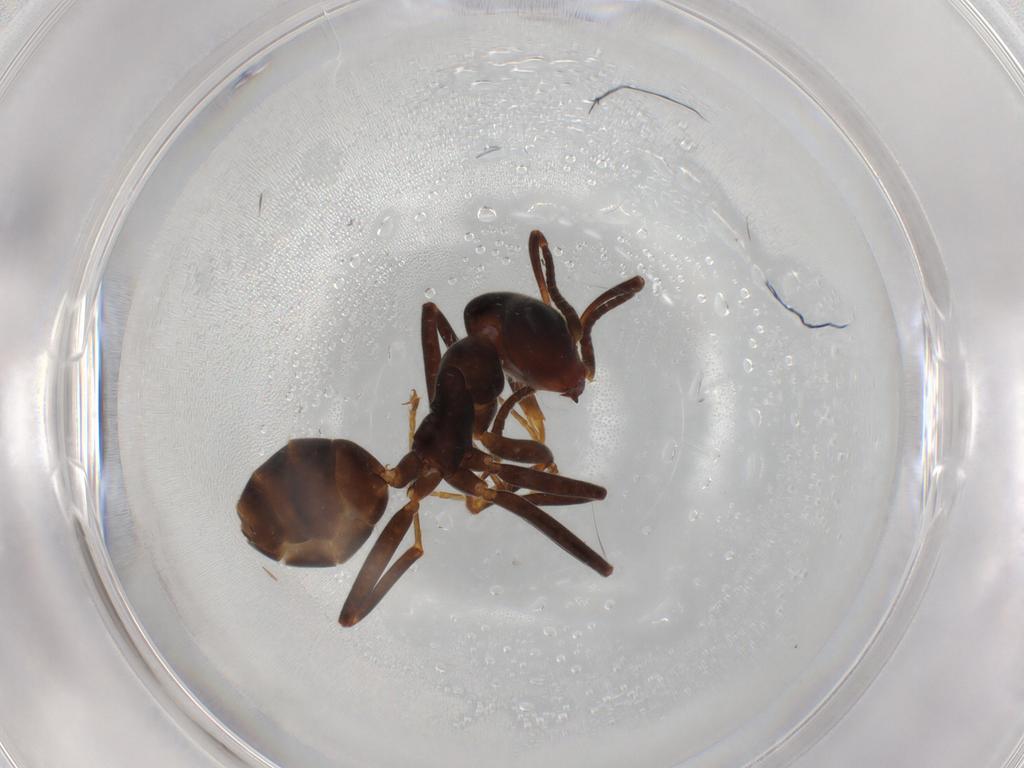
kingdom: Animalia
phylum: Arthropoda
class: Insecta
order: Hymenoptera
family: Formicidae
